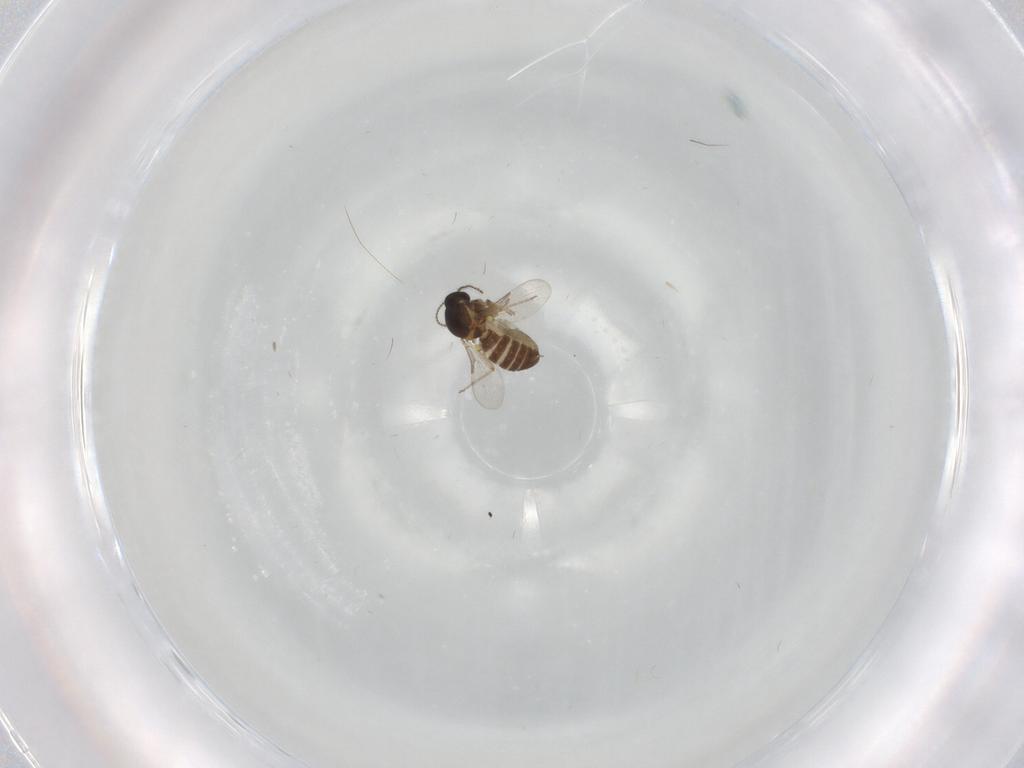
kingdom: Animalia
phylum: Arthropoda
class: Insecta
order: Diptera
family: Ceratopogonidae
